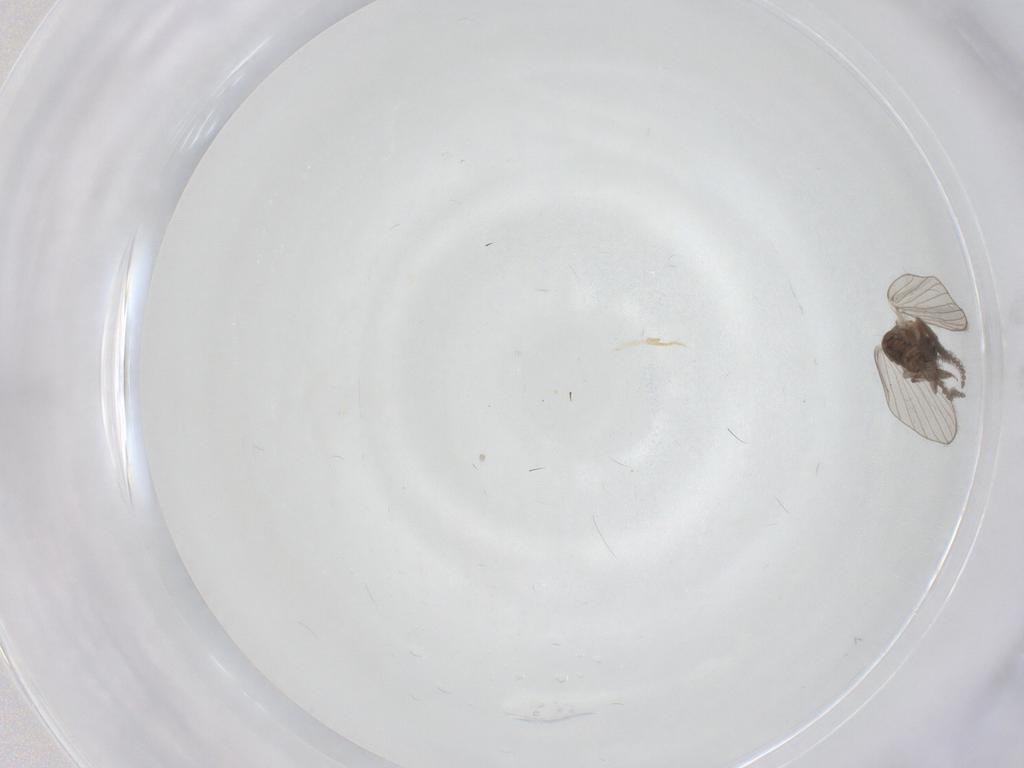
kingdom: Animalia
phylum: Arthropoda
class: Insecta
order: Diptera
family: Psychodidae
